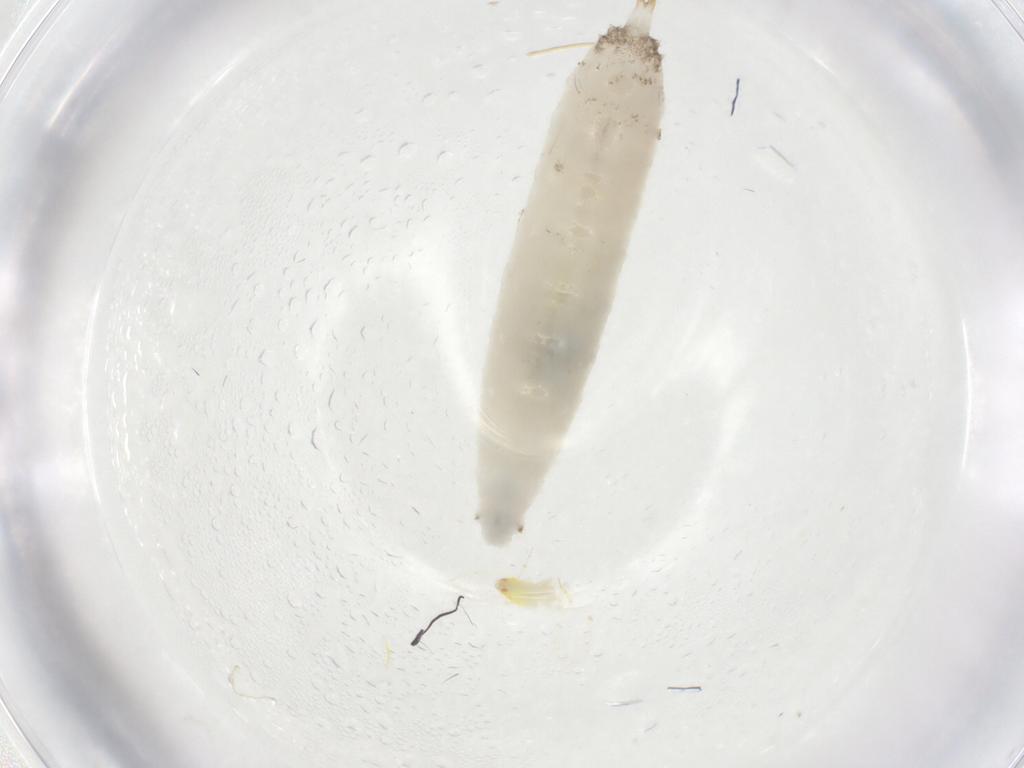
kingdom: Animalia
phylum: Arthropoda
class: Insecta
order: Hemiptera
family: Aleyrodidae
